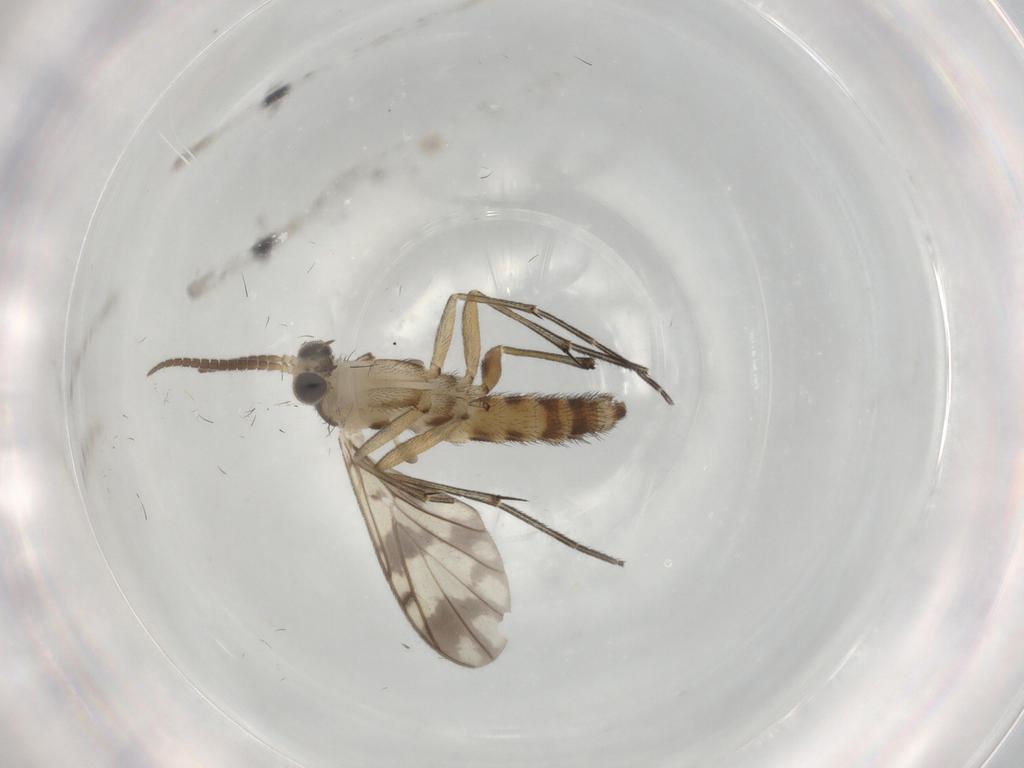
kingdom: Animalia
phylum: Arthropoda
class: Insecta
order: Diptera
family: Keroplatidae
